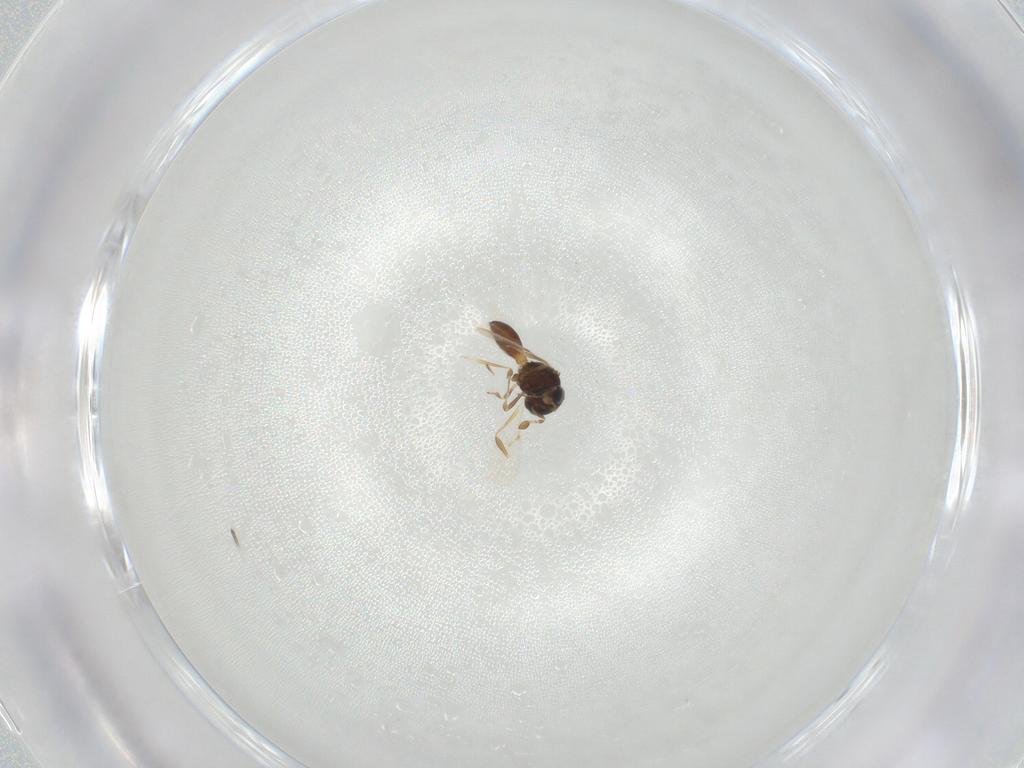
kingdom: Animalia
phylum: Arthropoda
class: Insecta
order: Hymenoptera
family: Scelionidae
